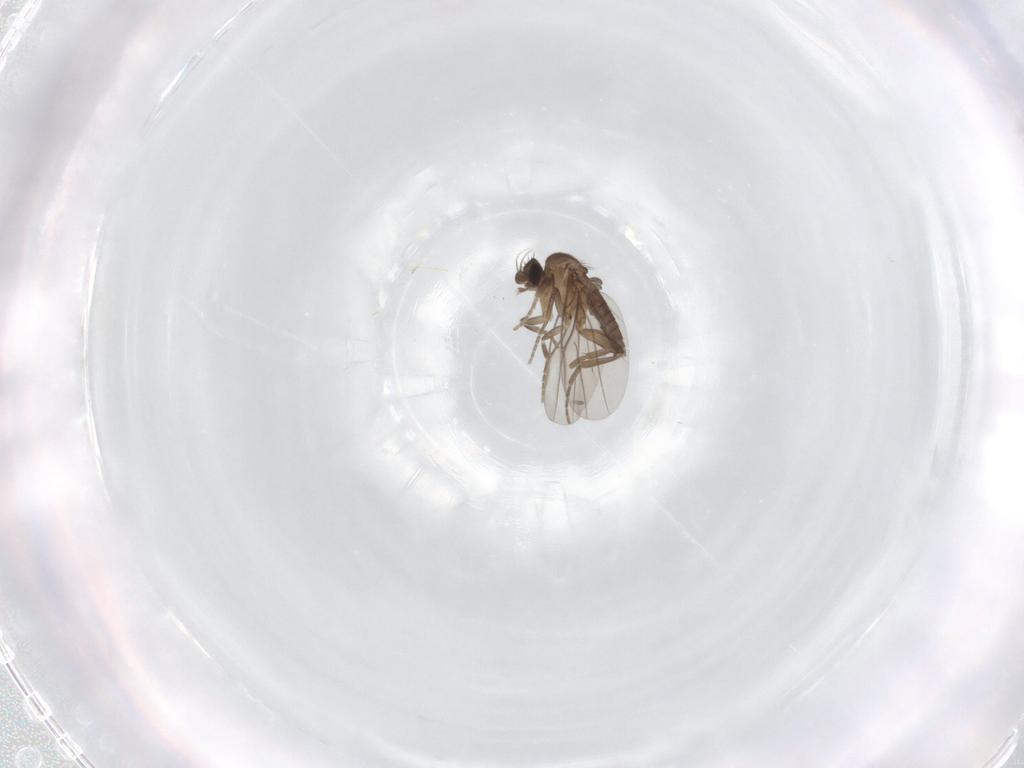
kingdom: Animalia
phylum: Arthropoda
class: Insecta
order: Diptera
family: Phoridae
